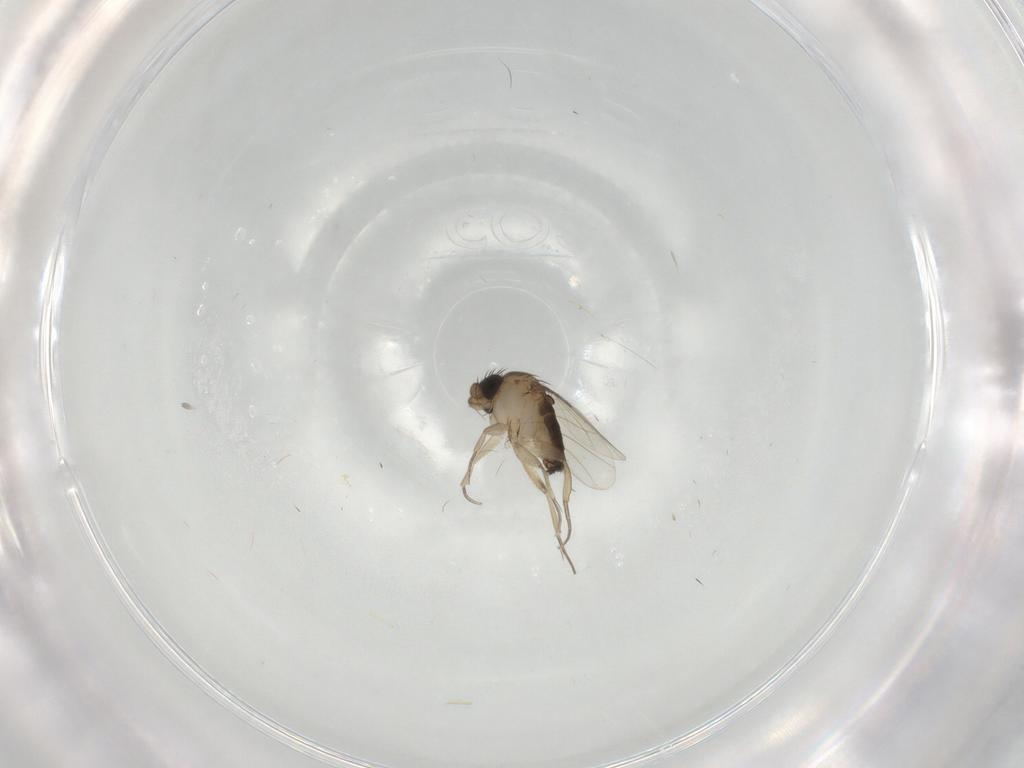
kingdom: Animalia
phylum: Arthropoda
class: Insecta
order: Diptera
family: Phoridae
